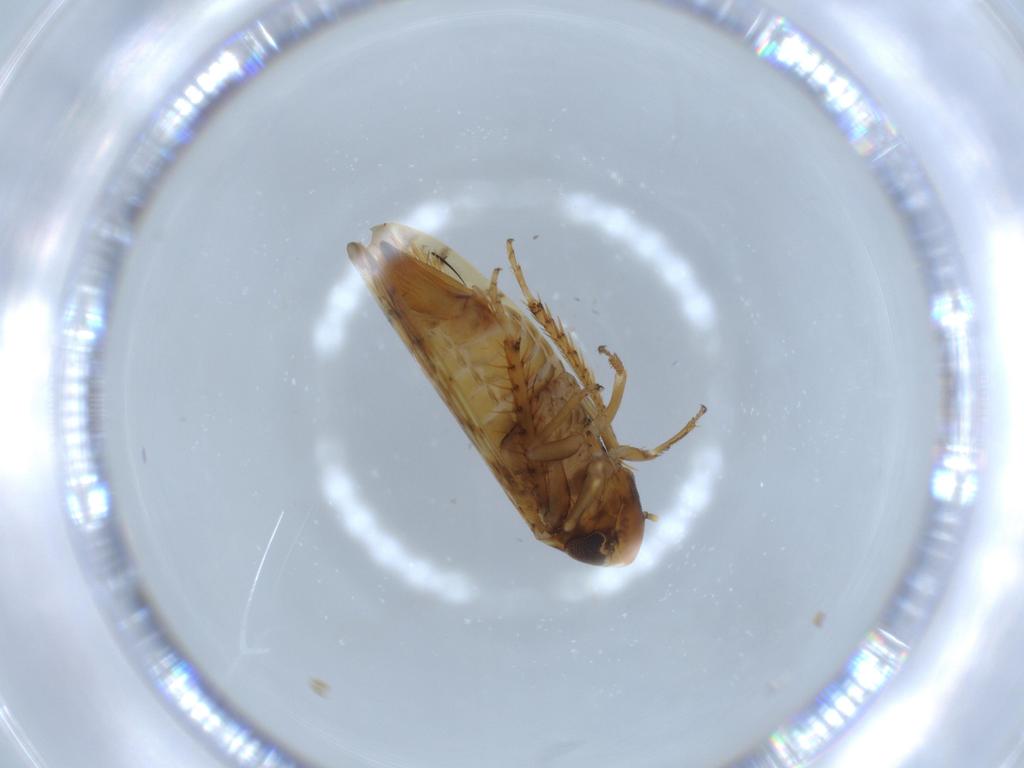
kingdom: Animalia
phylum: Arthropoda
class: Insecta
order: Hemiptera
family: Cicadellidae
